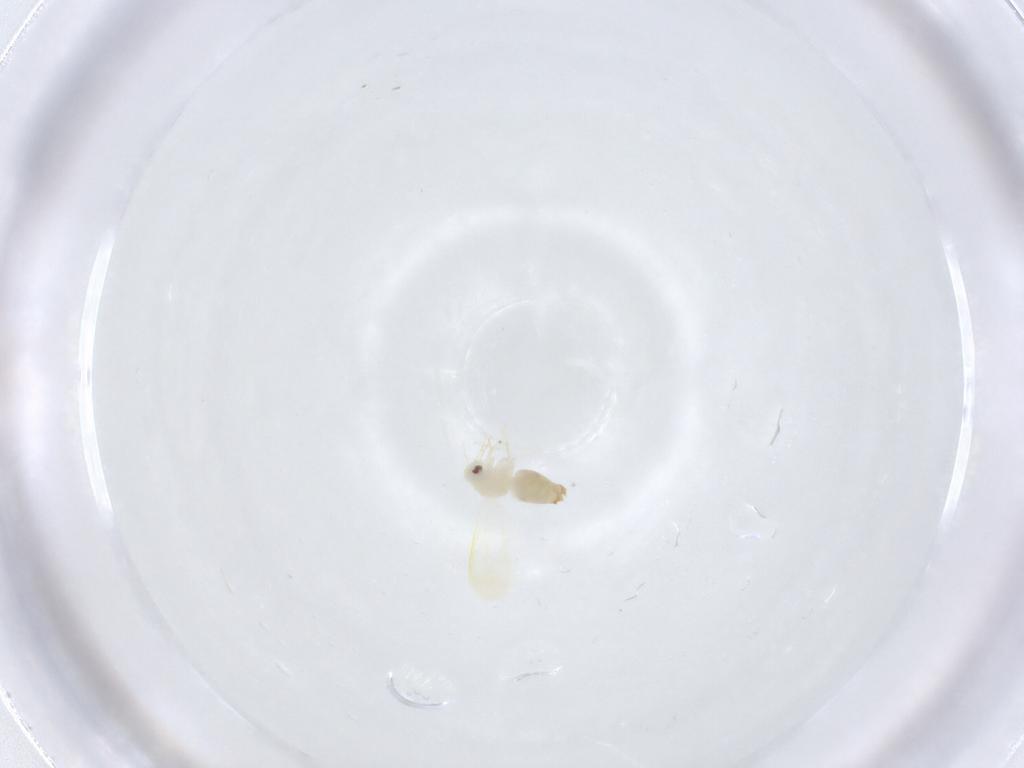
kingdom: Animalia
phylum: Arthropoda
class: Insecta
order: Hemiptera
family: Aleyrodidae
